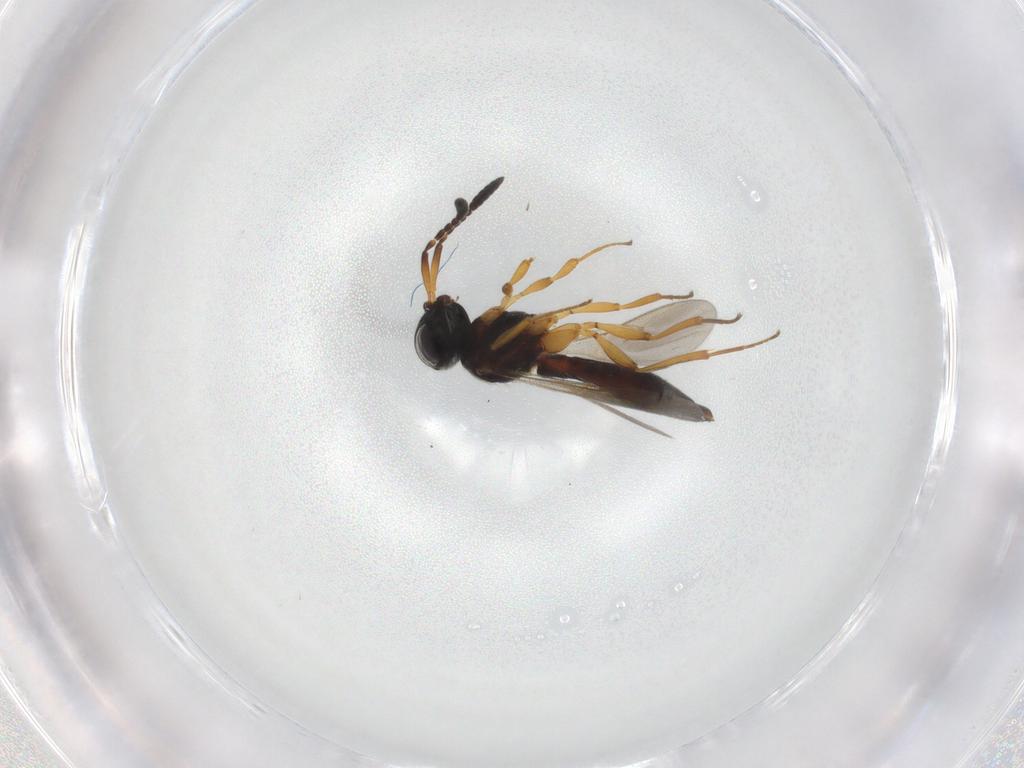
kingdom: Animalia
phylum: Arthropoda
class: Insecta
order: Hymenoptera
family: Scelionidae
